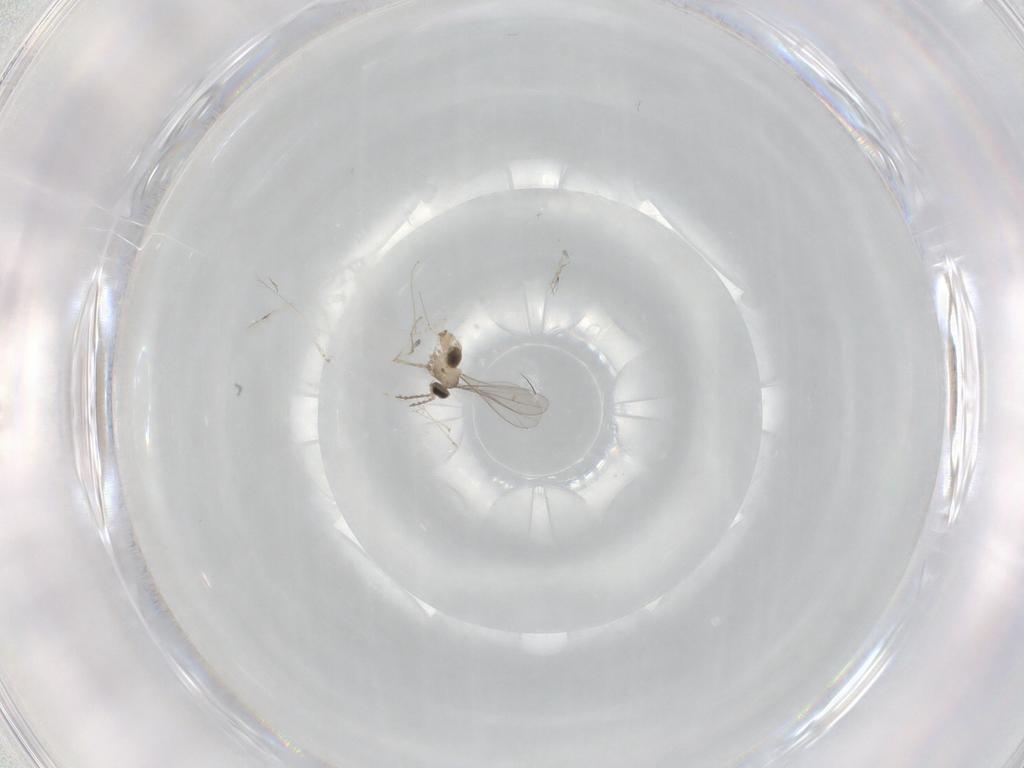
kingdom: Animalia
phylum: Arthropoda
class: Insecta
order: Diptera
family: Cecidomyiidae
